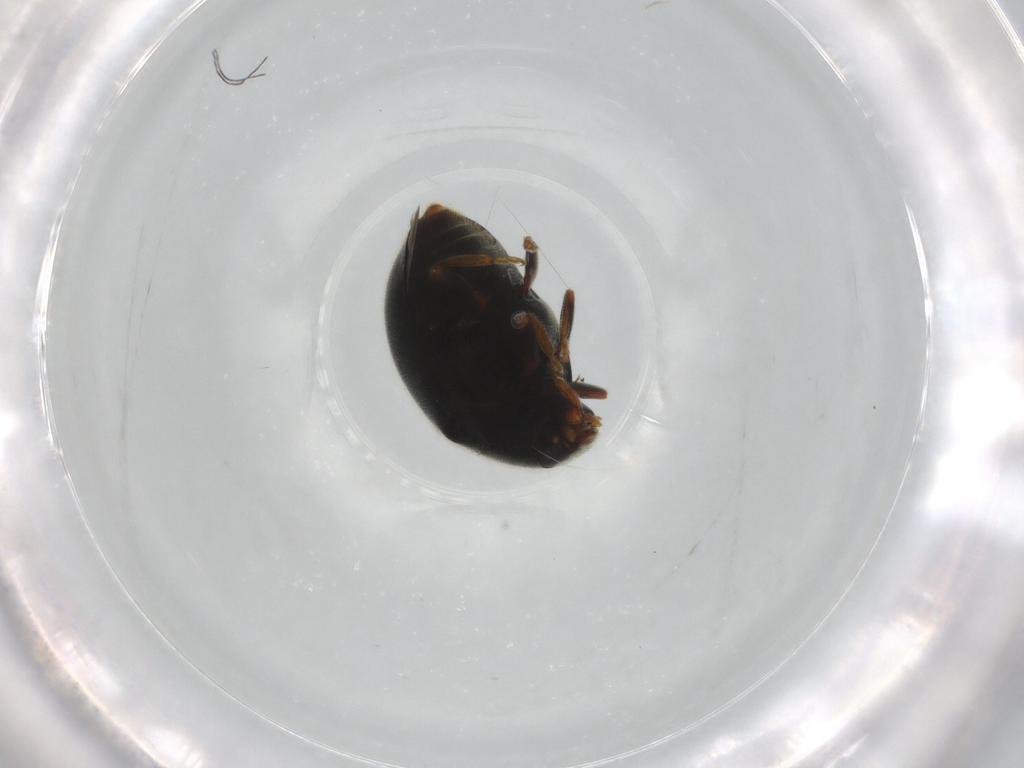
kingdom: Animalia
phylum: Arthropoda
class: Insecta
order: Coleoptera
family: Coccinellidae
